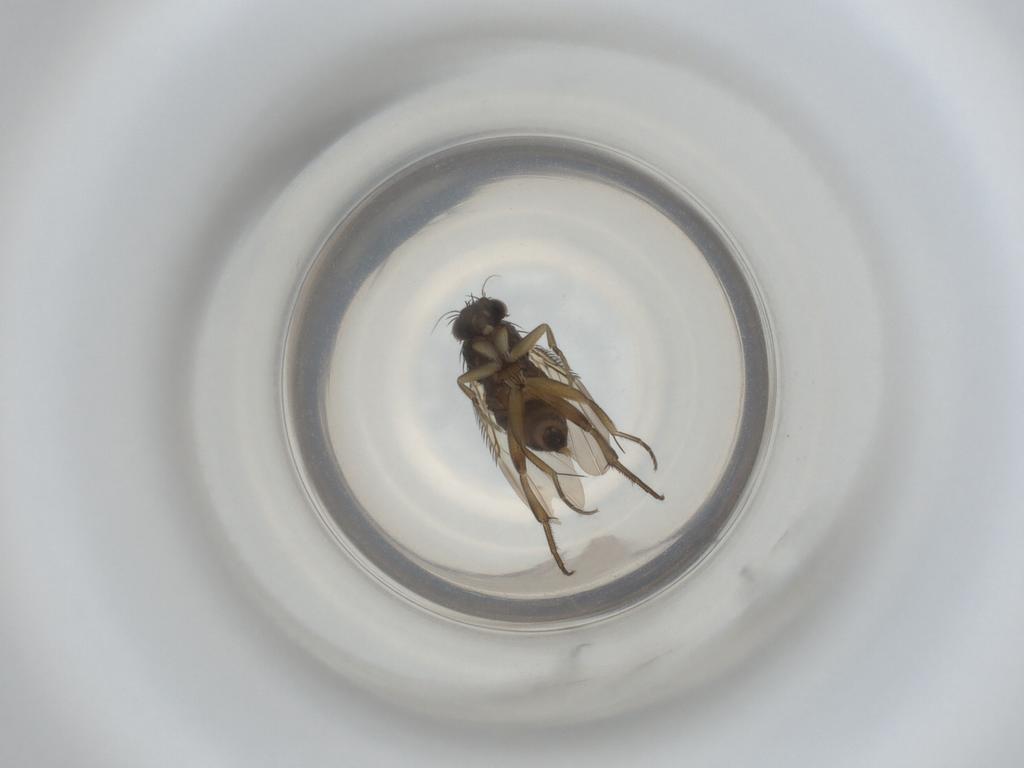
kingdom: Animalia
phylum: Arthropoda
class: Insecta
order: Diptera
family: Phoridae
